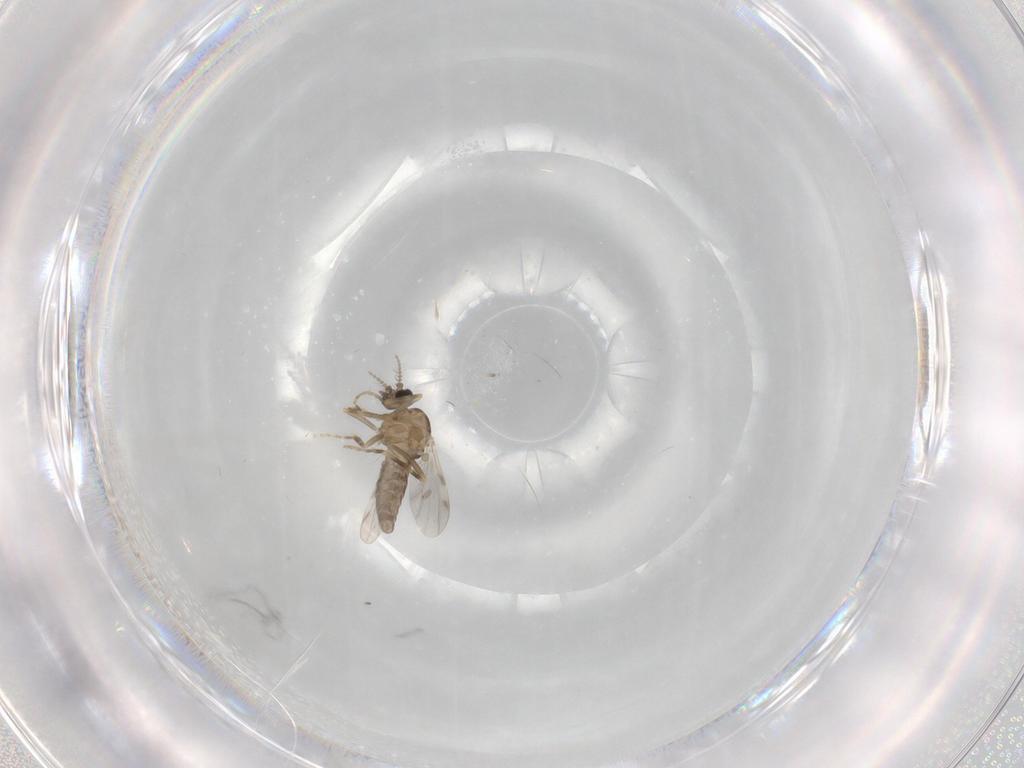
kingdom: Animalia
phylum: Arthropoda
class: Insecta
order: Diptera
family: Ceratopogonidae
